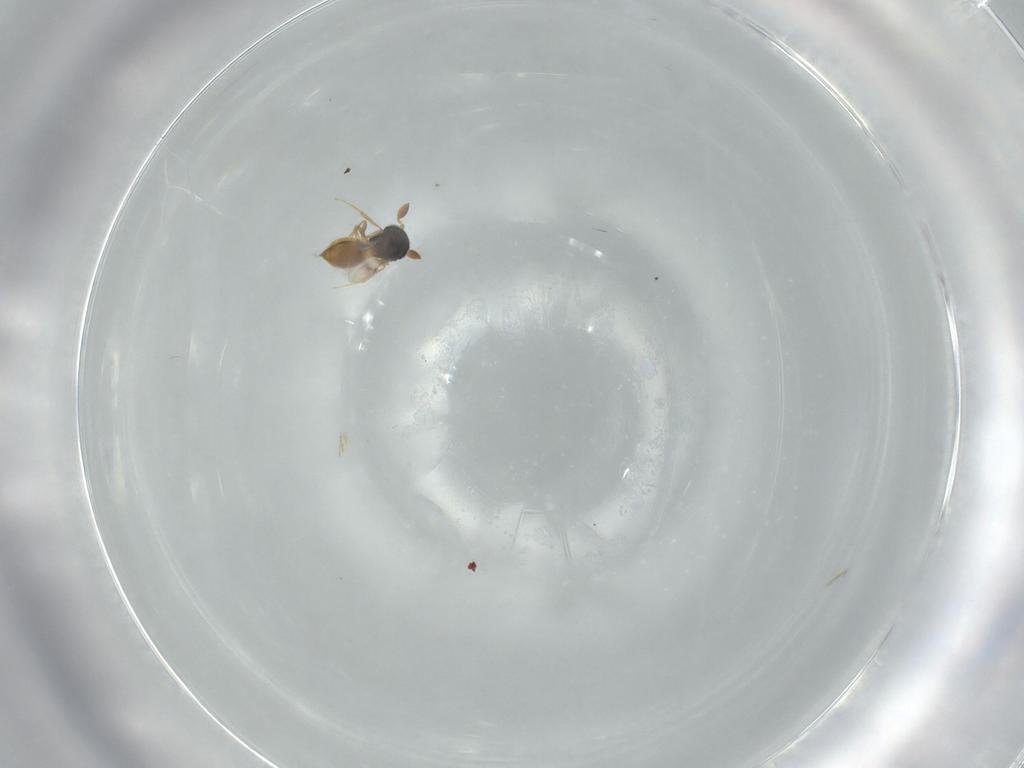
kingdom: Animalia
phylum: Arthropoda
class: Insecta
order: Hymenoptera
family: Scelionidae
